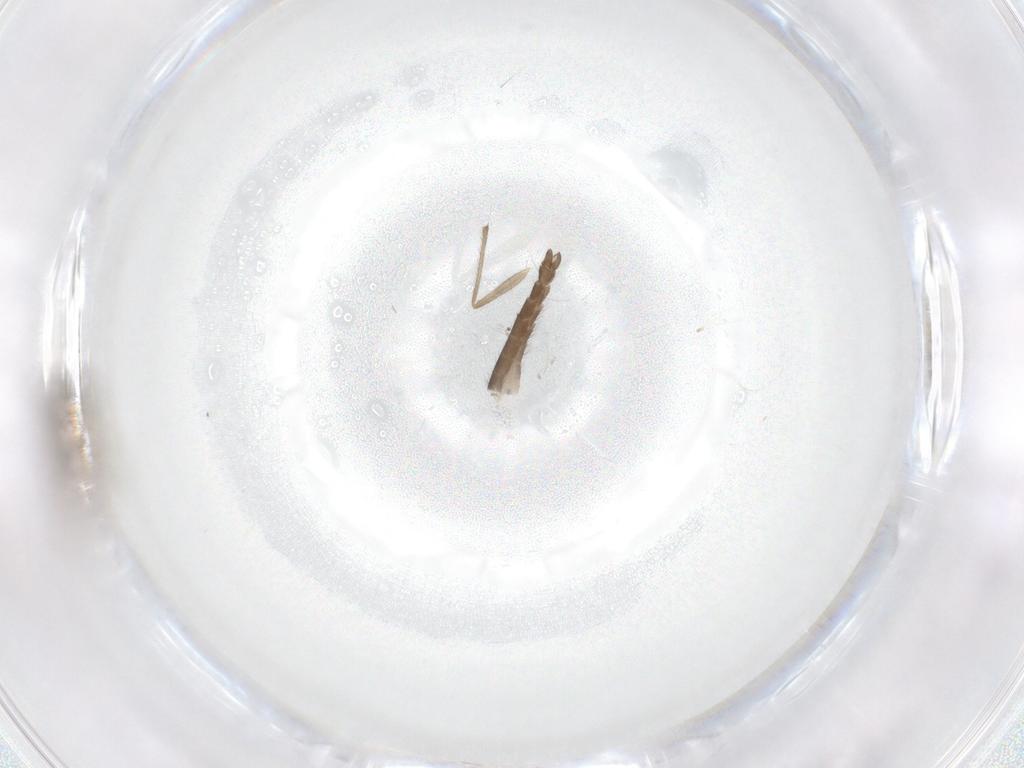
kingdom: Animalia
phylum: Arthropoda
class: Insecta
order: Diptera
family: Chironomidae
